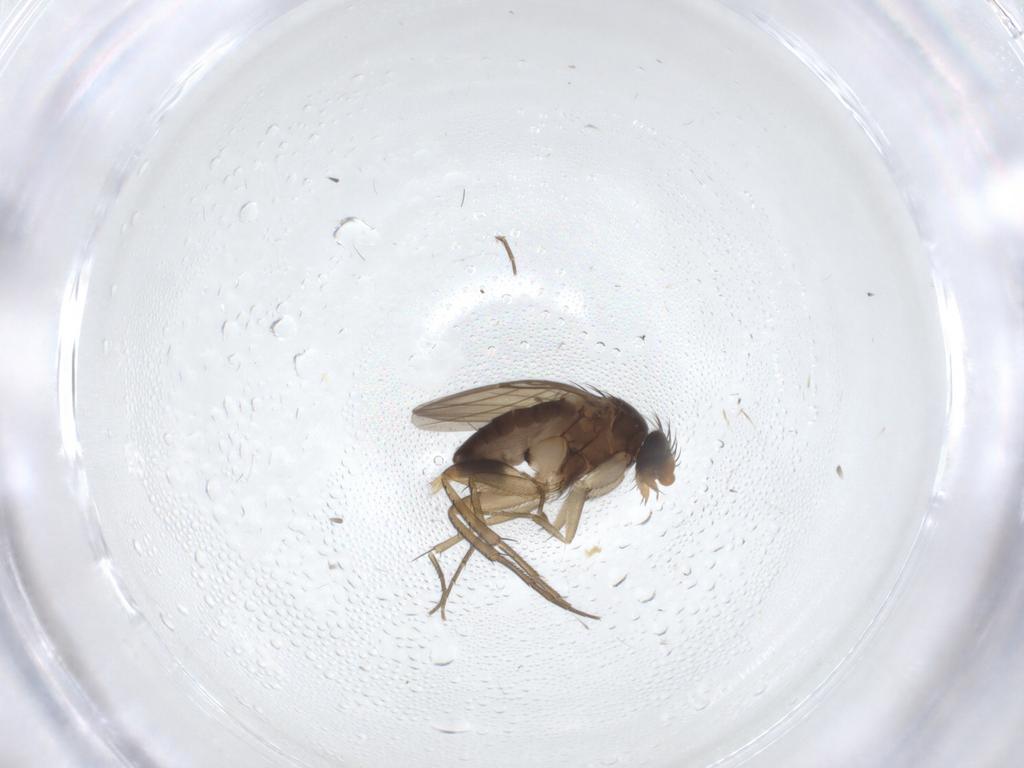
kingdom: Animalia
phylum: Arthropoda
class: Insecta
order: Diptera
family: Phoridae
